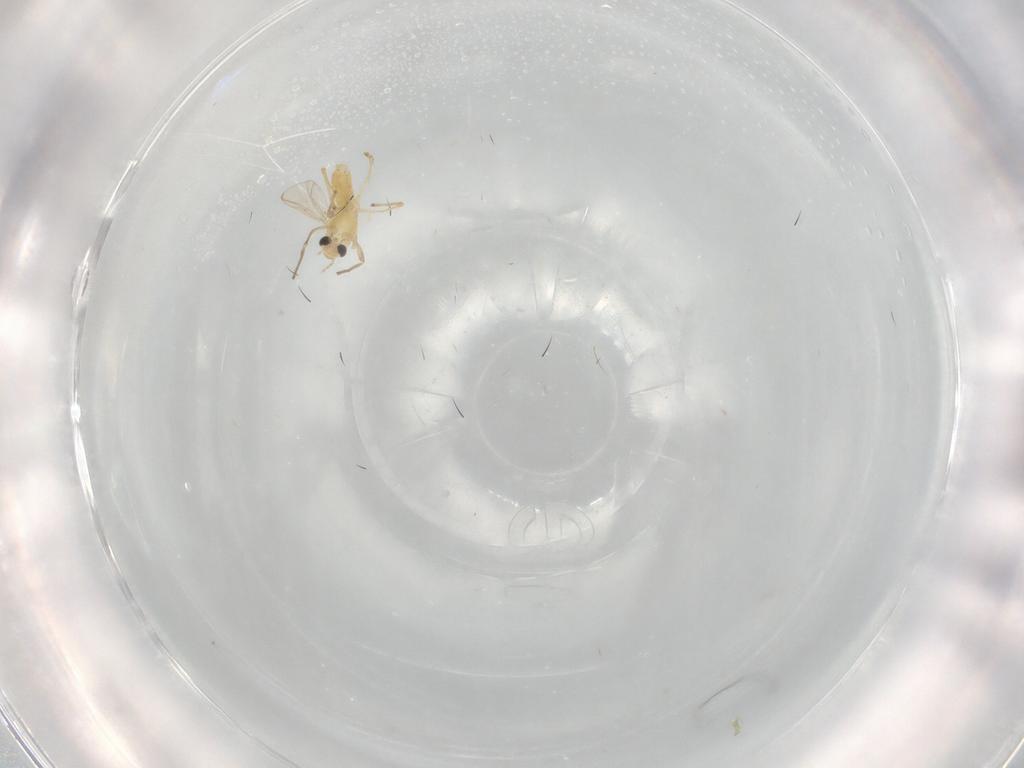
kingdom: Animalia
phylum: Arthropoda
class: Insecta
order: Diptera
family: Chironomidae
